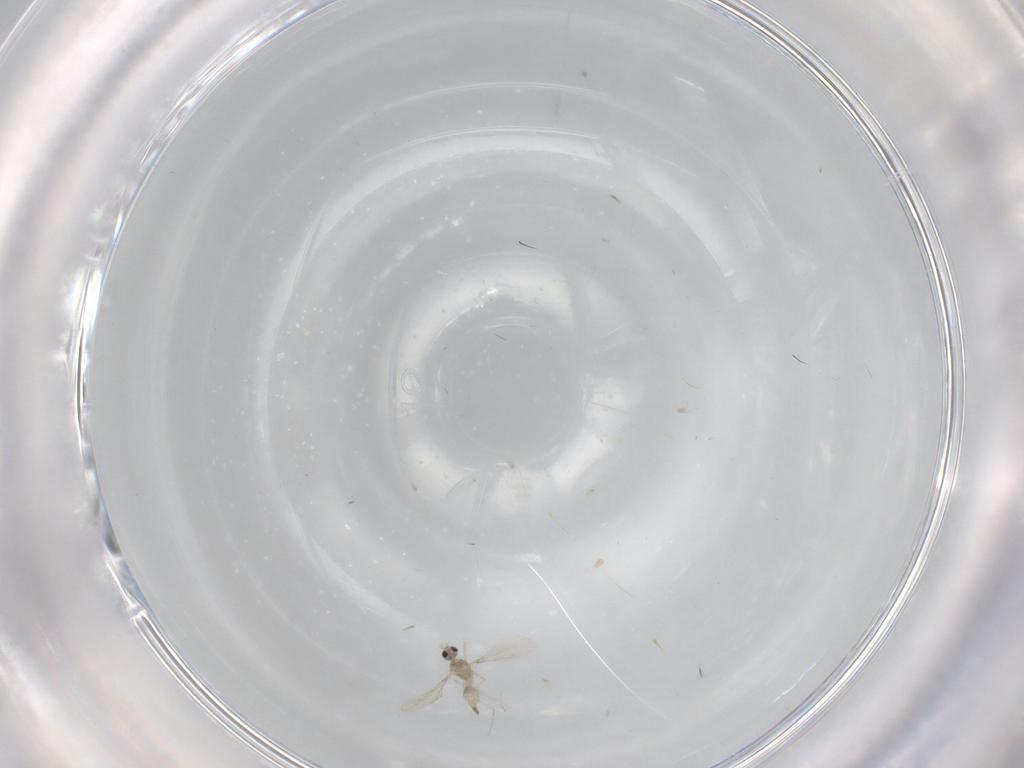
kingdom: Animalia
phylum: Arthropoda
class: Insecta
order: Diptera
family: Cecidomyiidae
